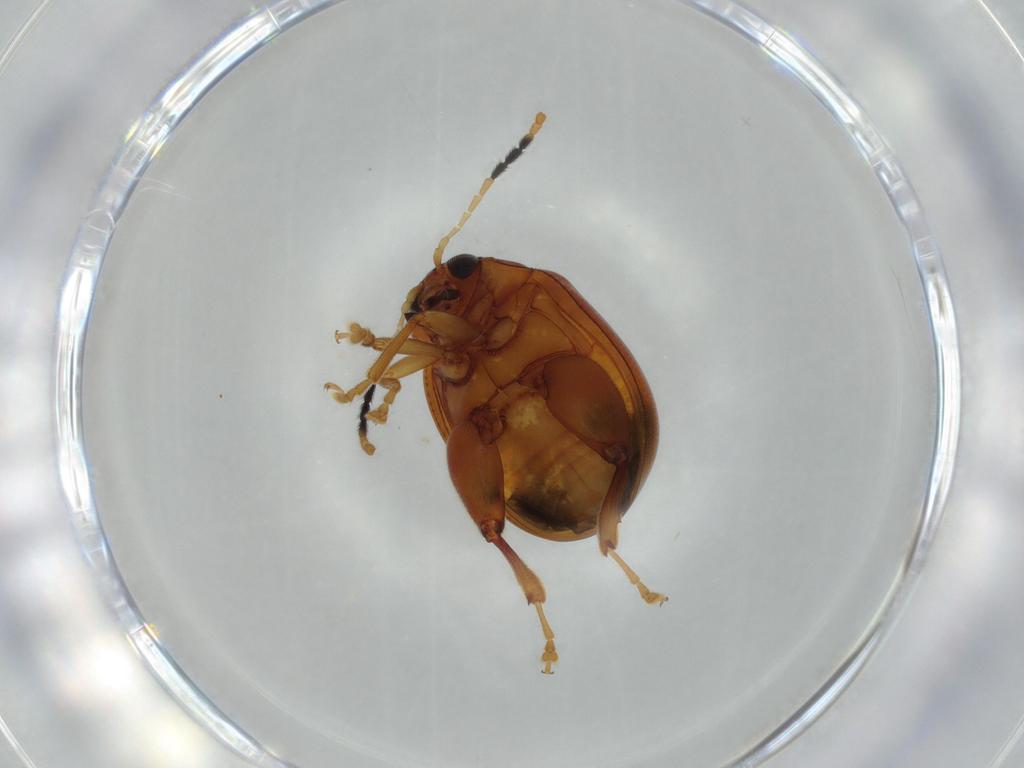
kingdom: Animalia
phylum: Arthropoda
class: Insecta
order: Coleoptera
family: Chrysomelidae
